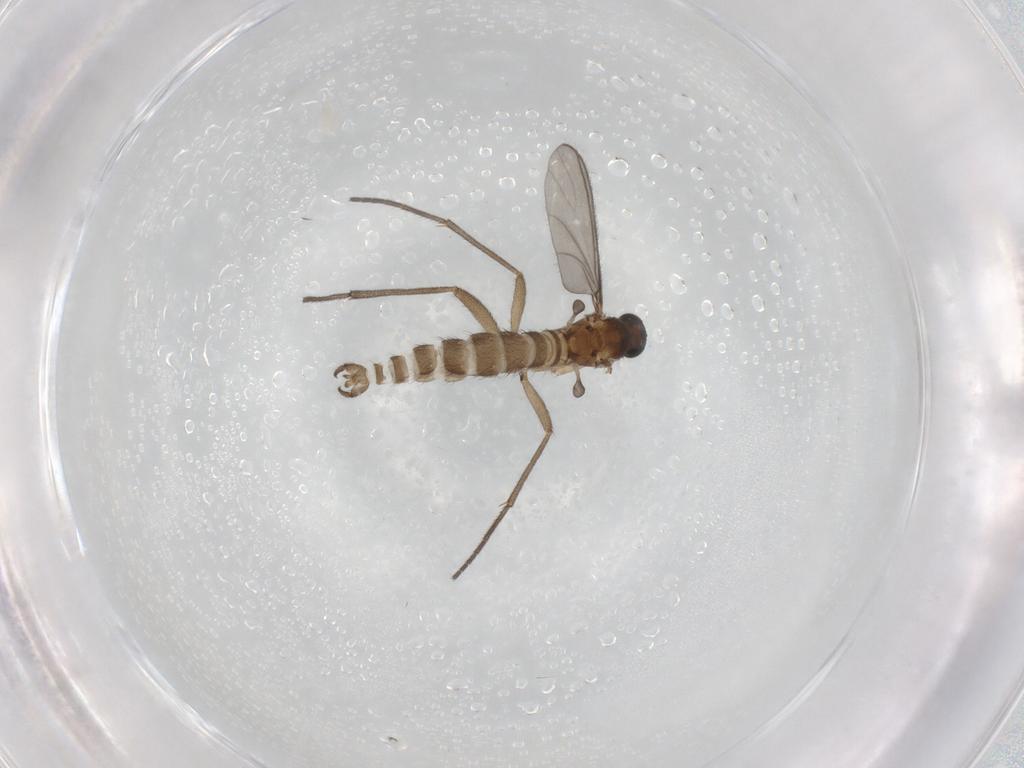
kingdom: Animalia
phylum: Arthropoda
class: Insecta
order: Diptera
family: Sciaridae
